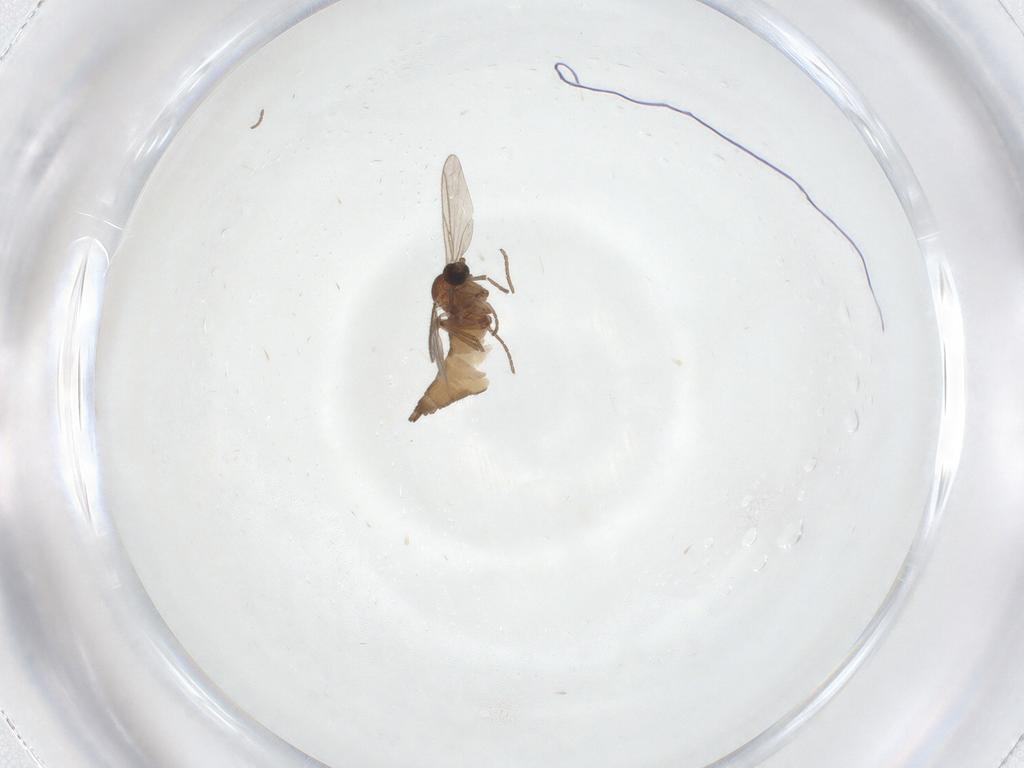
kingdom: Animalia
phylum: Arthropoda
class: Insecta
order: Diptera
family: Sciaridae
